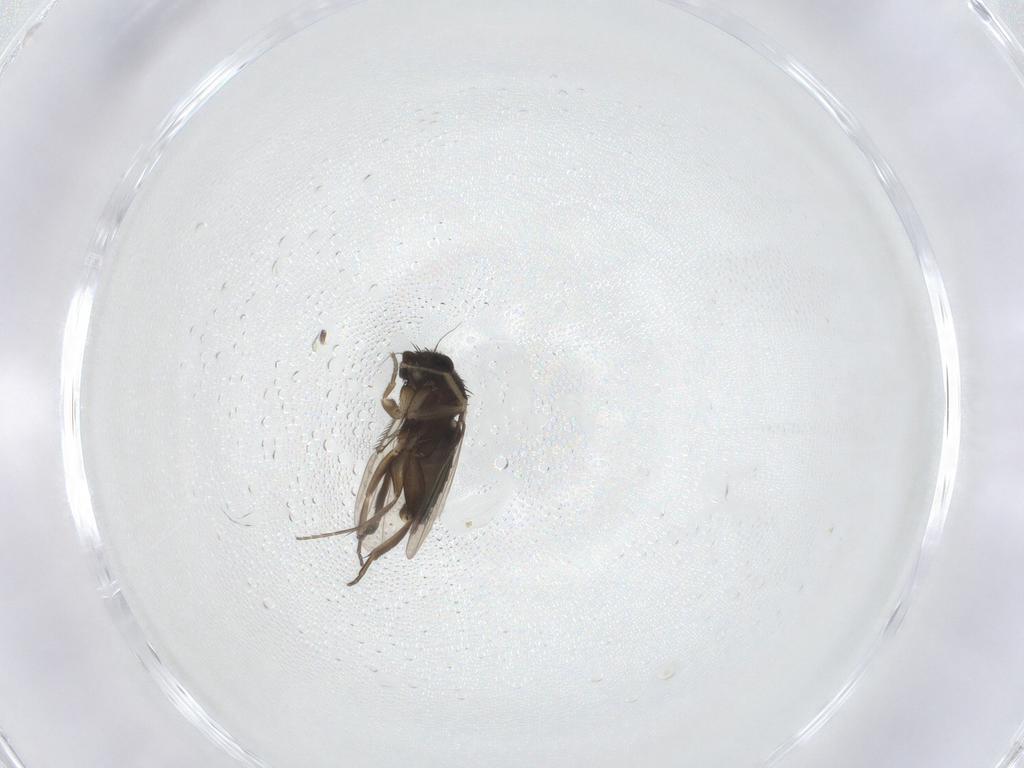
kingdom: Animalia
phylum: Arthropoda
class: Insecta
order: Diptera
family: Phoridae
